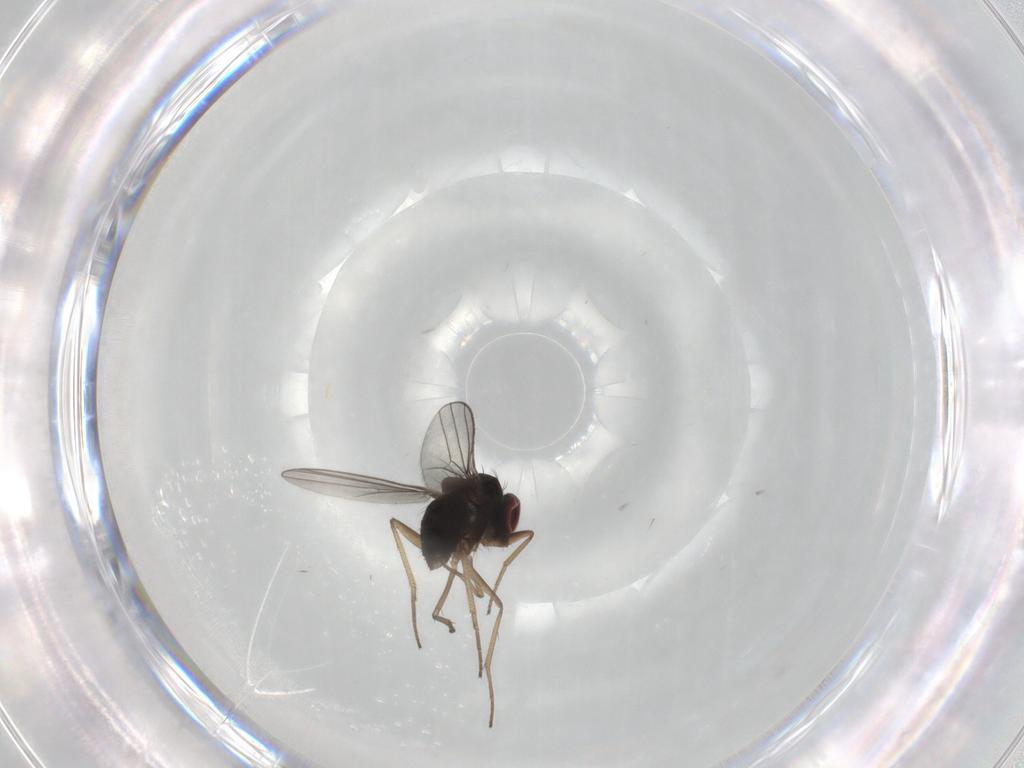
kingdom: Animalia
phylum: Arthropoda
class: Insecta
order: Diptera
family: Dolichopodidae
